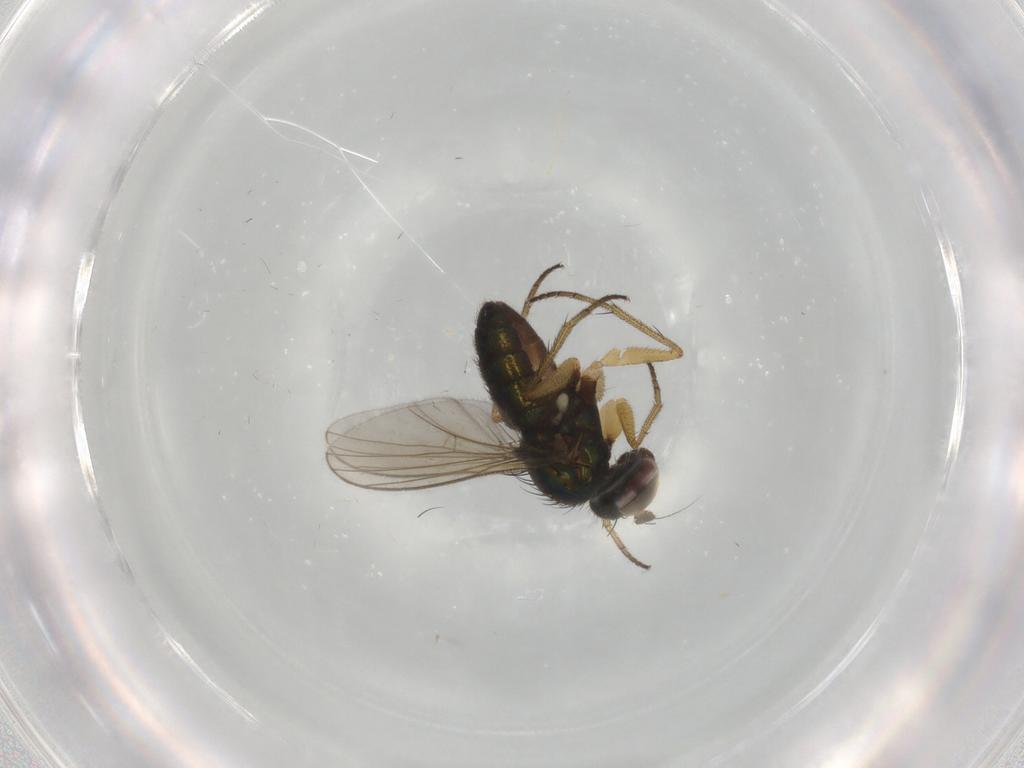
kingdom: Animalia
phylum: Arthropoda
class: Insecta
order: Diptera
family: Dolichopodidae
